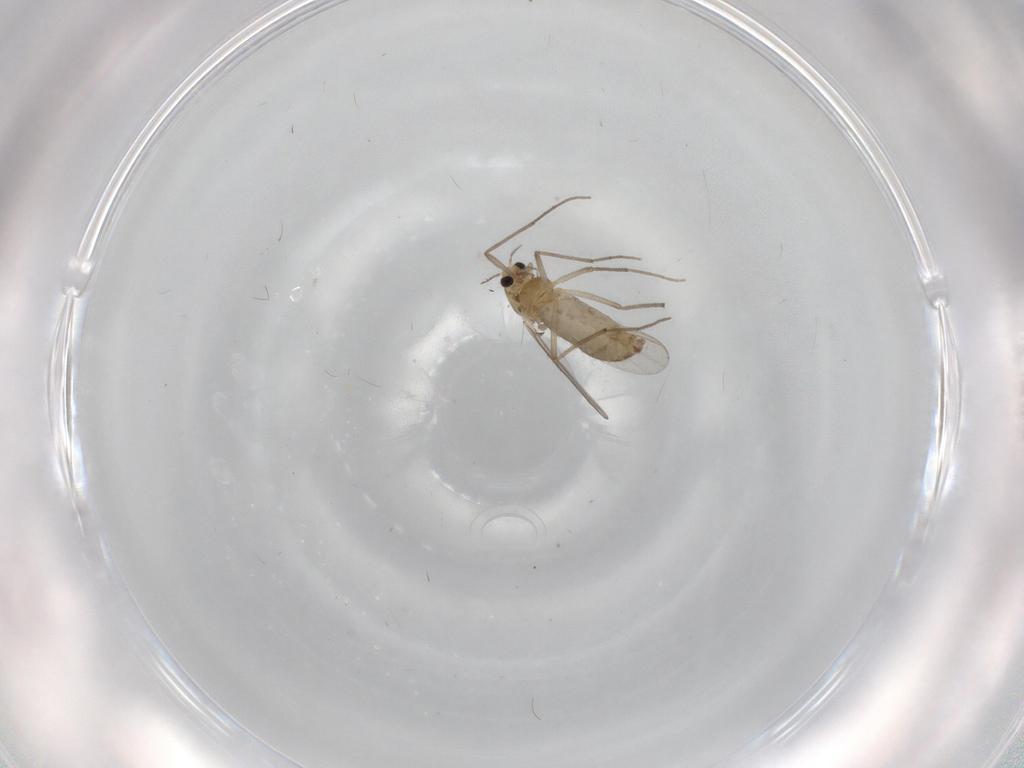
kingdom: Animalia
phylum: Arthropoda
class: Insecta
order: Diptera
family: Chironomidae
